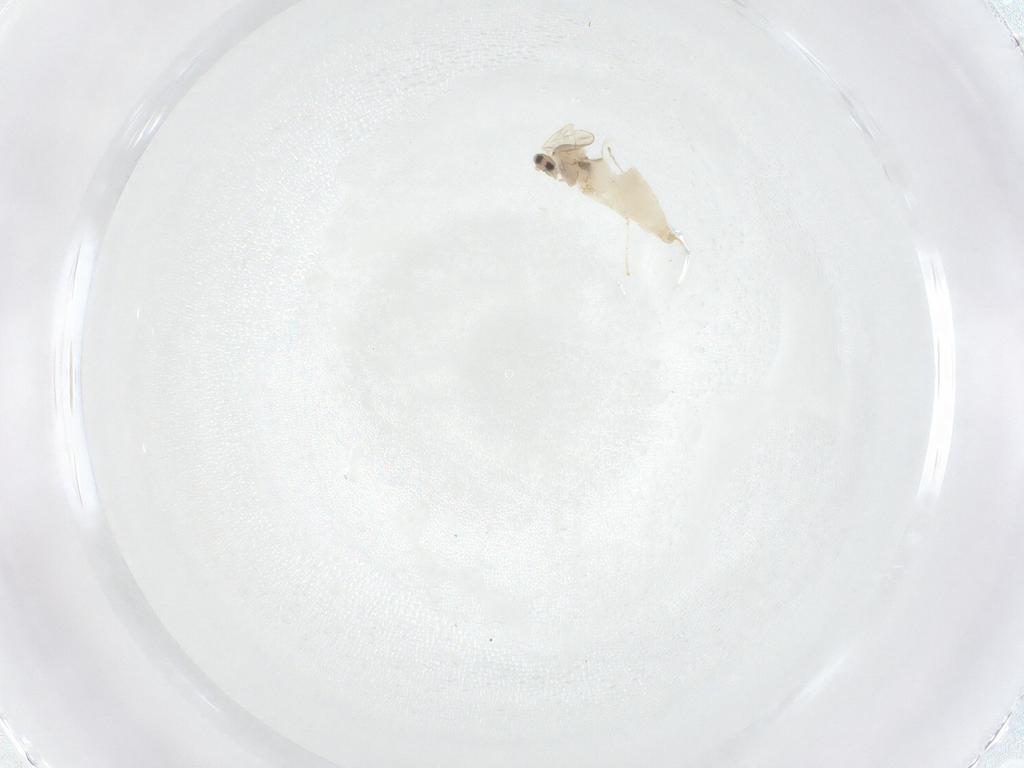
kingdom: Animalia
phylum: Arthropoda
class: Insecta
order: Diptera
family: Cecidomyiidae
